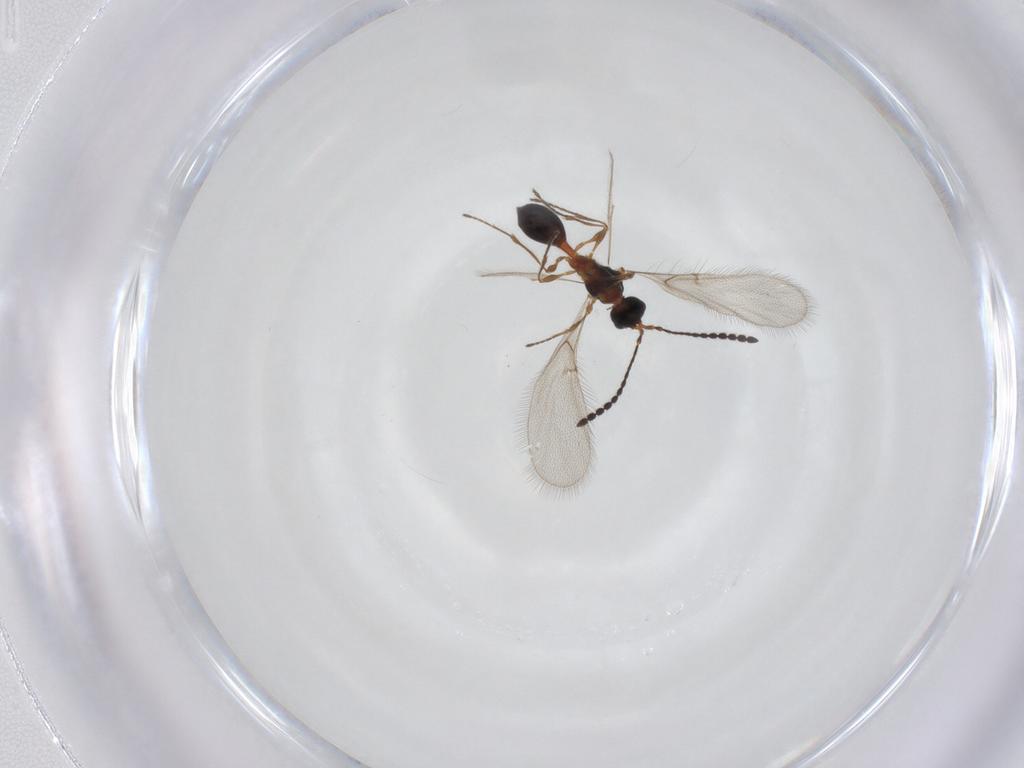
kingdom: Animalia
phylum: Arthropoda
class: Insecta
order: Hymenoptera
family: Diapriidae
